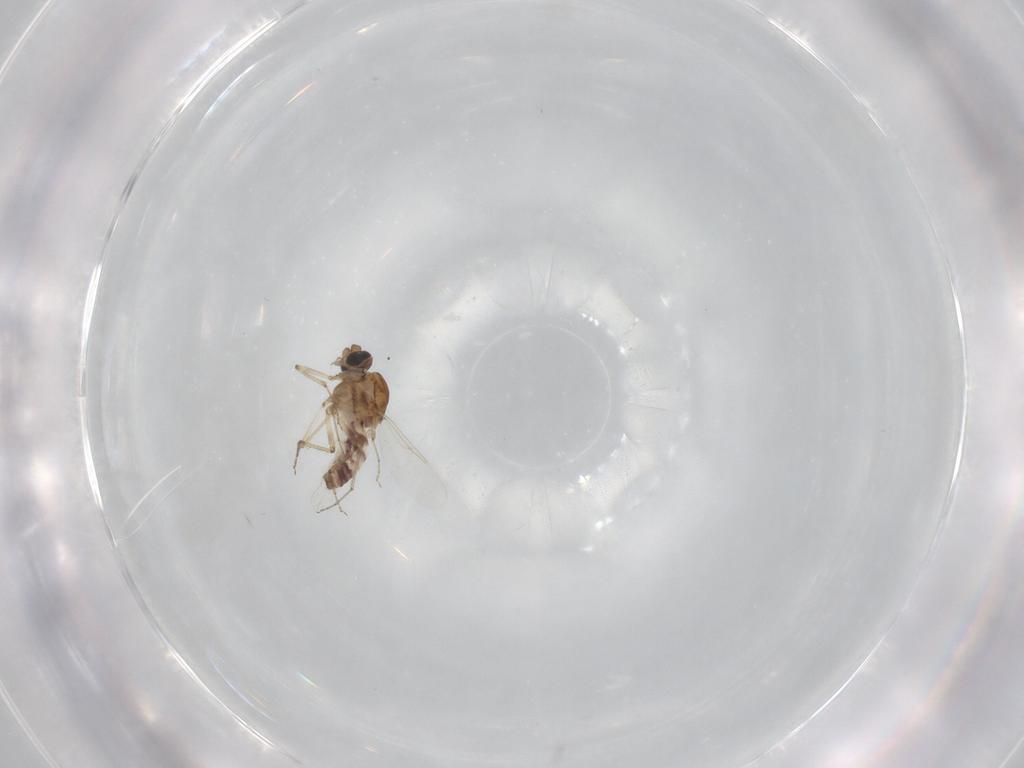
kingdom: Animalia
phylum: Arthropoda
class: Insecta
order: Diptera
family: Ceratopogonidae
